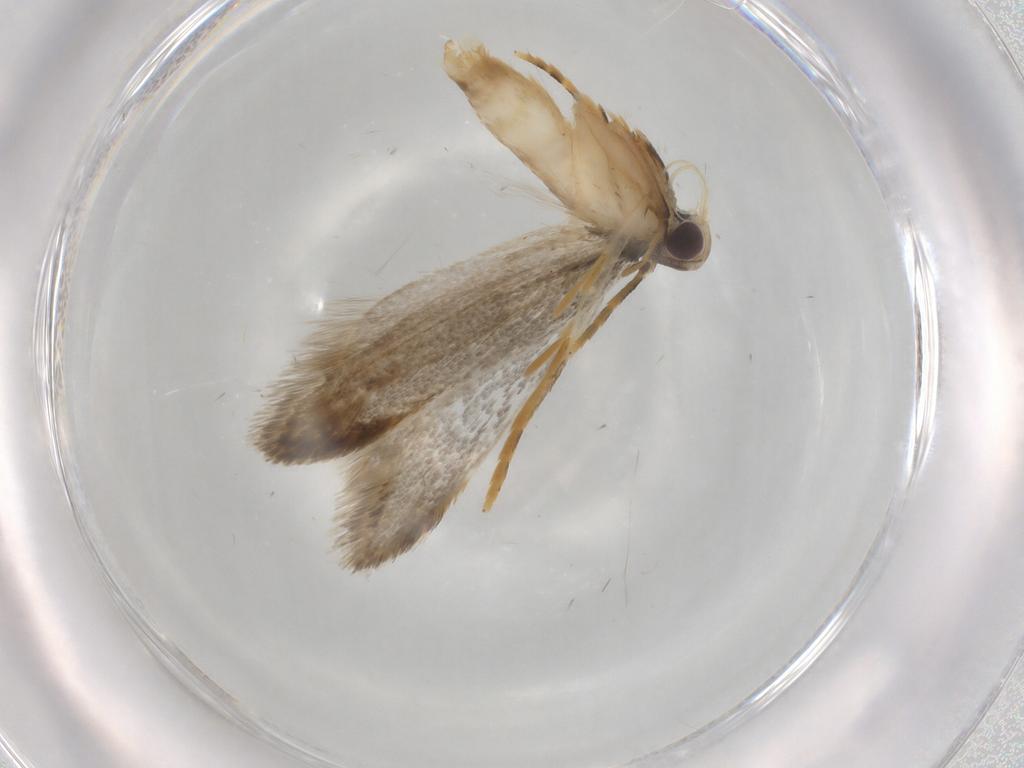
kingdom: Animalia
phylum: Arthropoda
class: Insecta
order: Lepidoptera
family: Autostichidae
